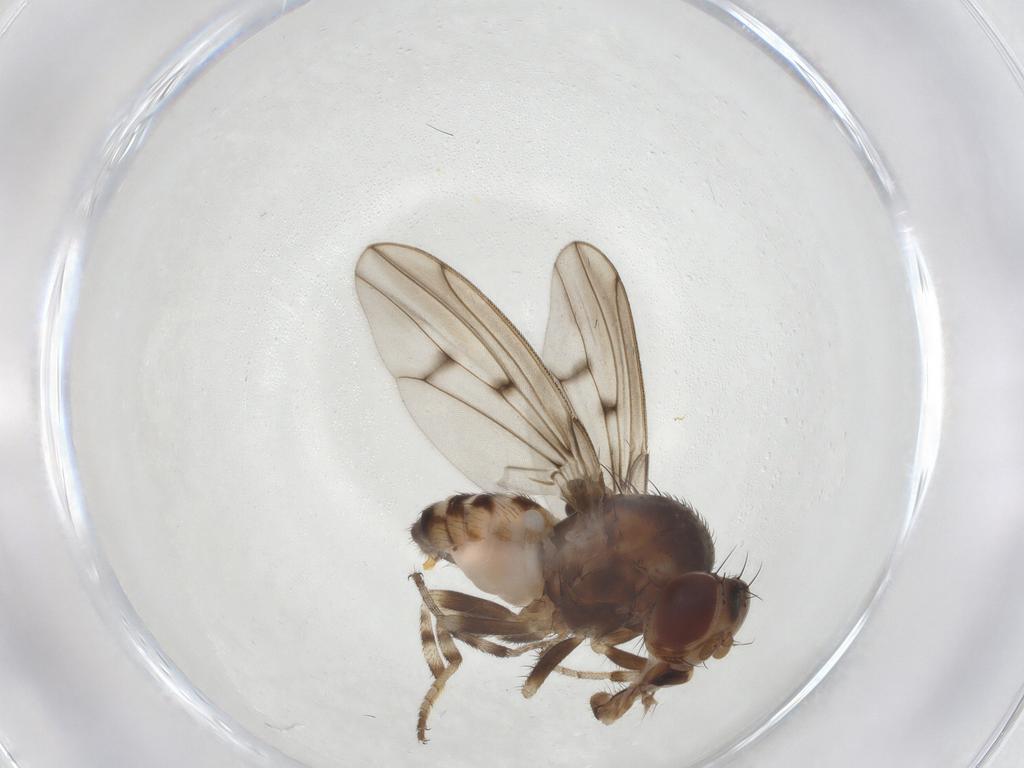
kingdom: Animalia
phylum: Arthropoda
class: Insecta
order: Diptera
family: Drosophilidae
